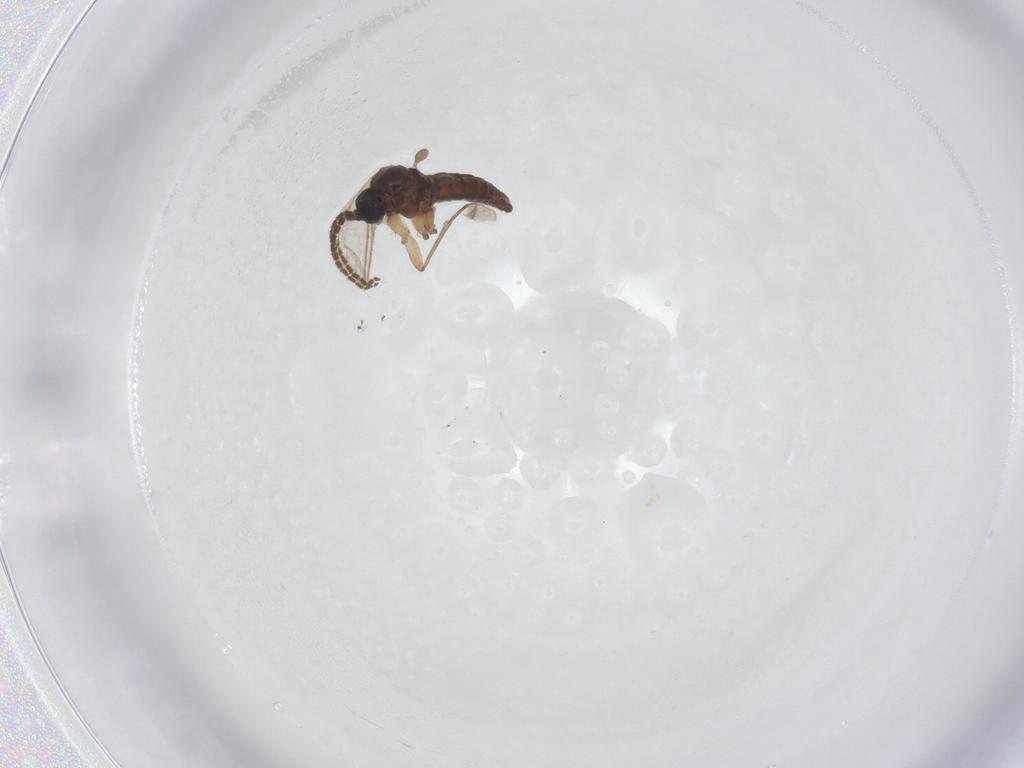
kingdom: Animalia
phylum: Arthropoda
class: Insecta
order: Diptera
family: Sciaridae
